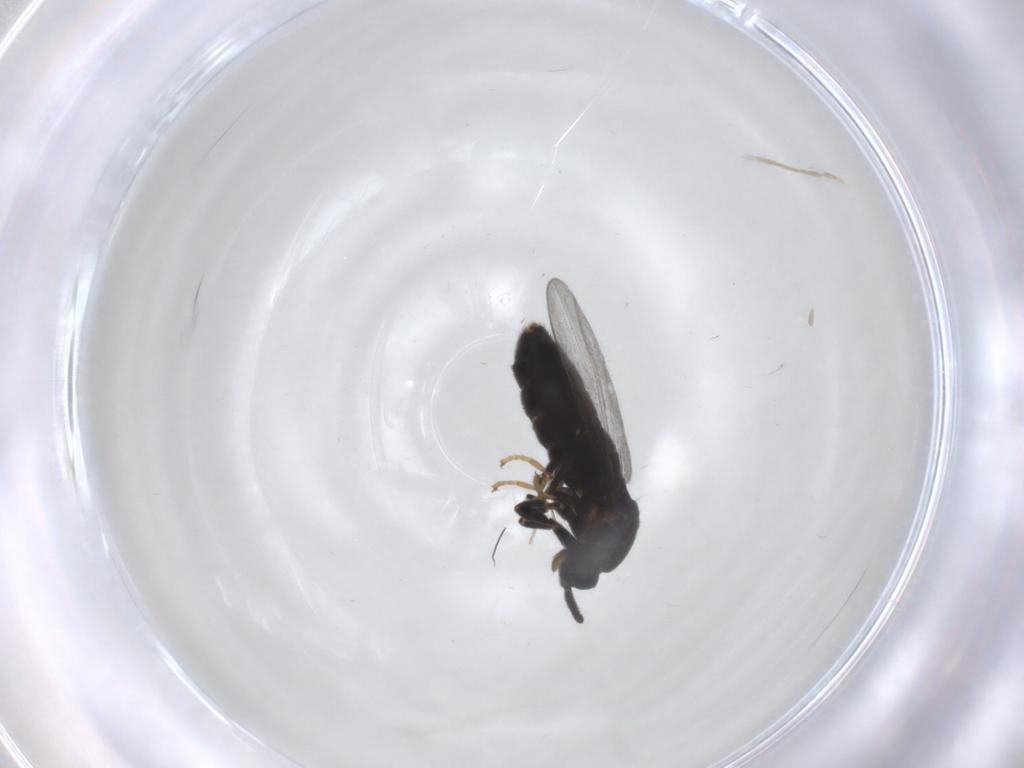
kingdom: Animalia
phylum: Arthropoda
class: Insecta
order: Diptera
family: Scatopsidae
